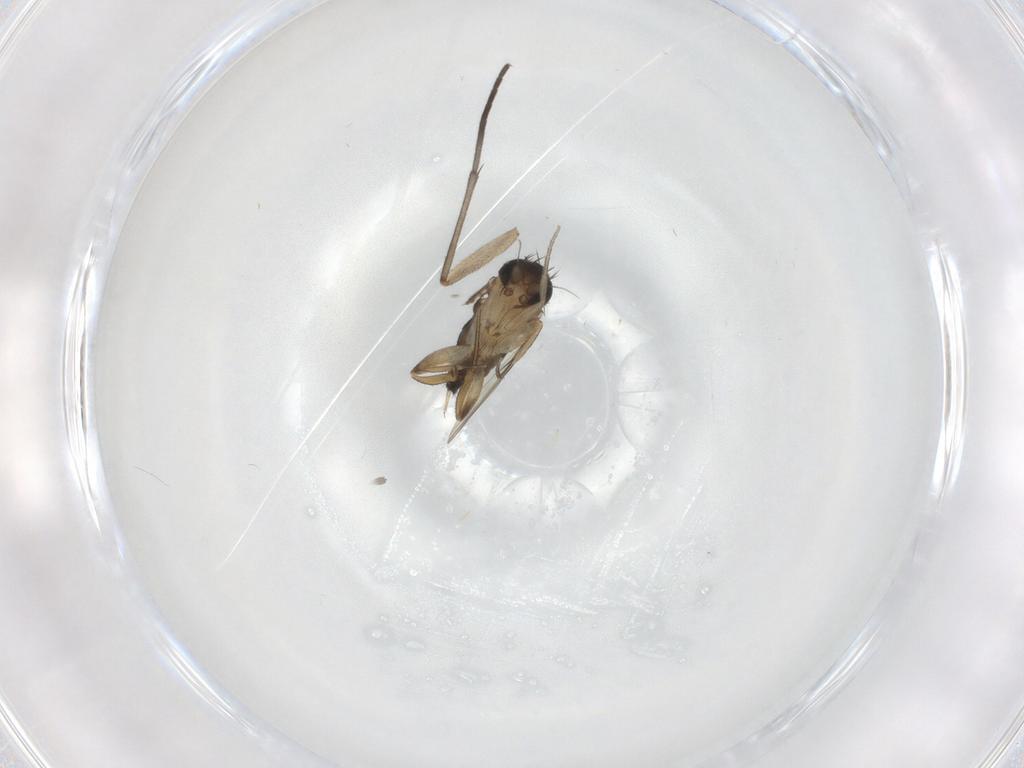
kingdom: Animalia
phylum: Arthropoda
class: Insecta
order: Diptera
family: Phoridae
